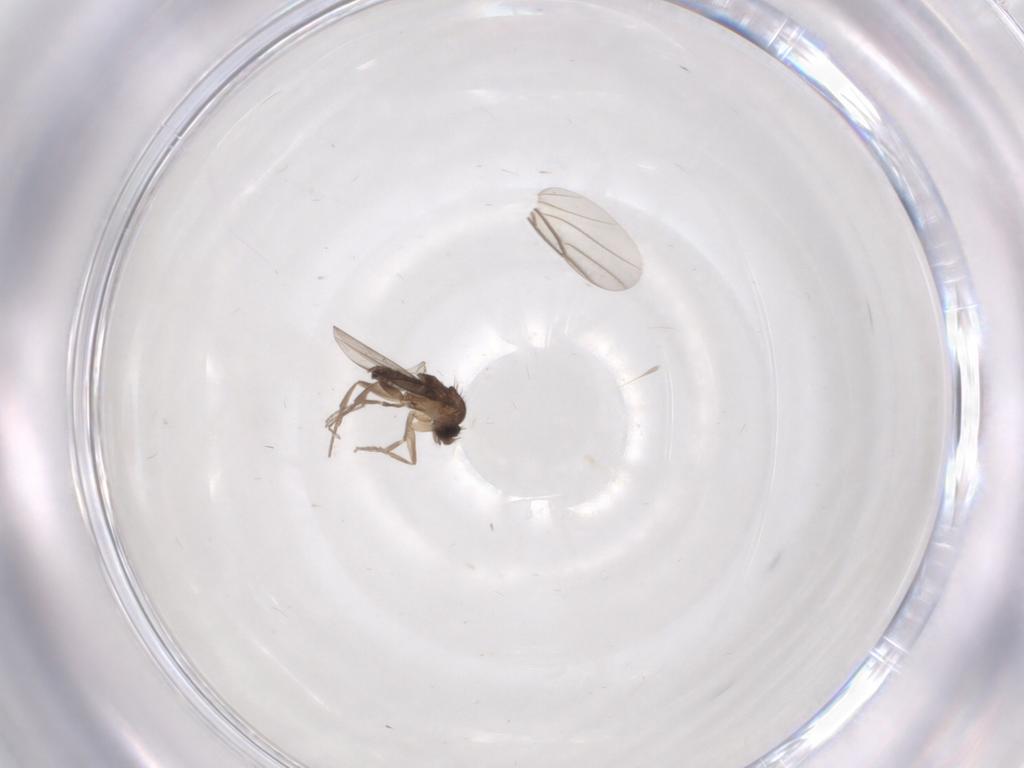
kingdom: Animalia
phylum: Arthropoda
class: Insecta
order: Diptera
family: Phoridae
